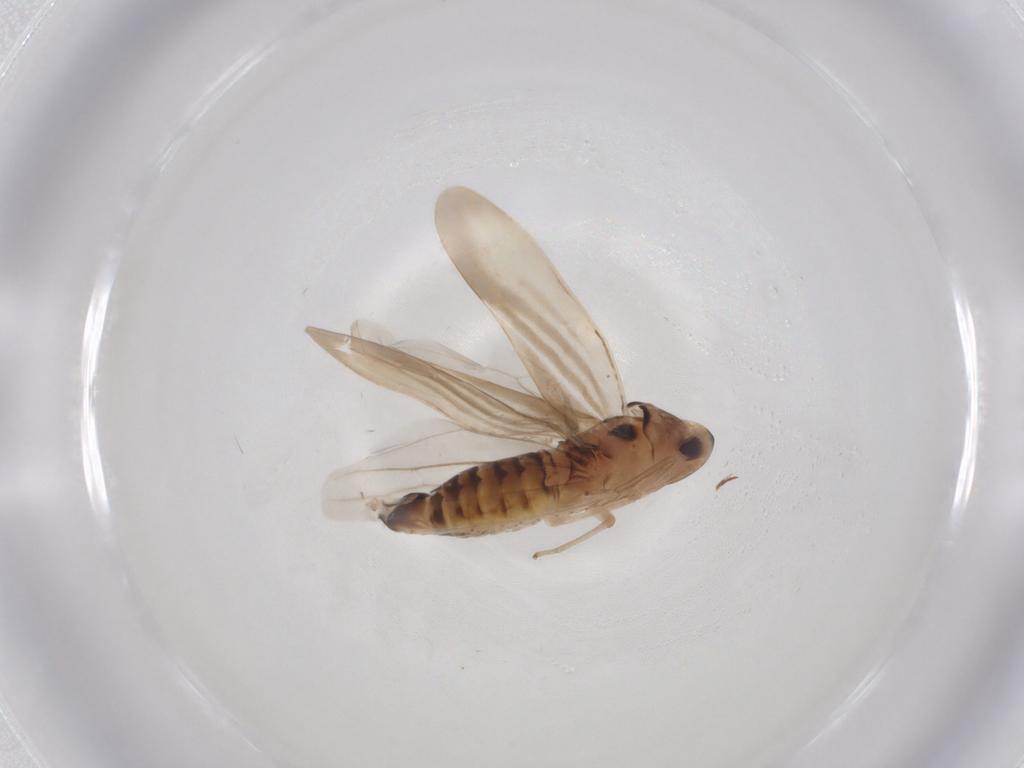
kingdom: Animalia
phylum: Arthropoda
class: Insecta
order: Hemiptera
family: Cicadellidae
